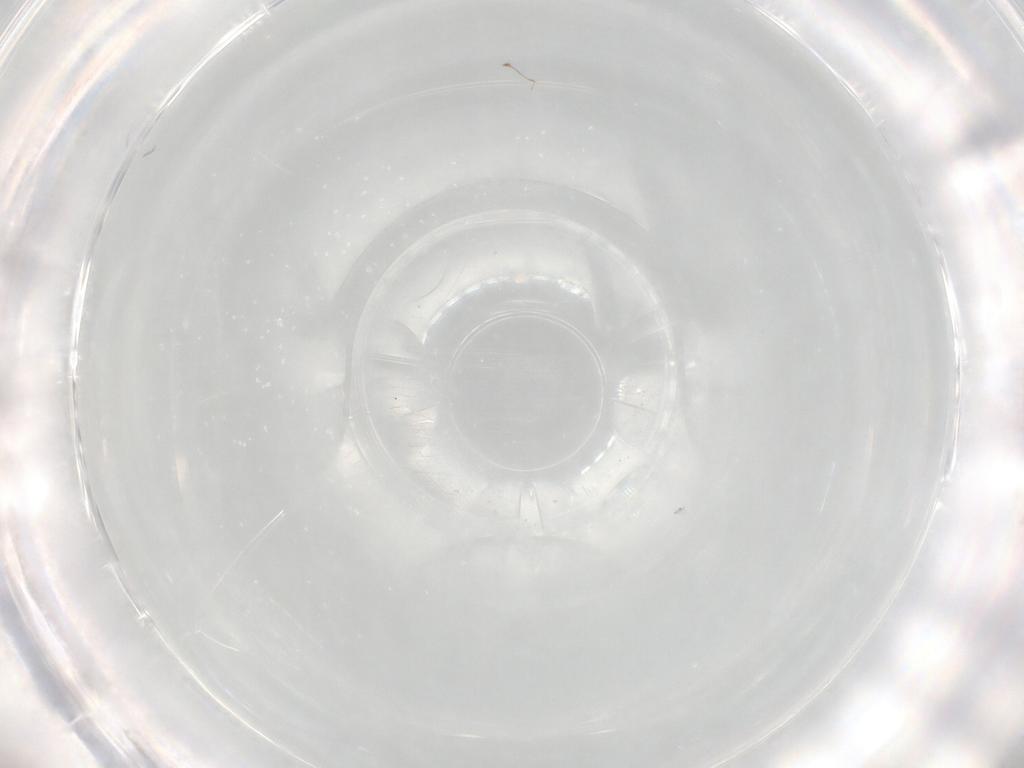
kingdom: Animalia
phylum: Arthropoda
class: Insecta
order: Diptera
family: Phoridae
